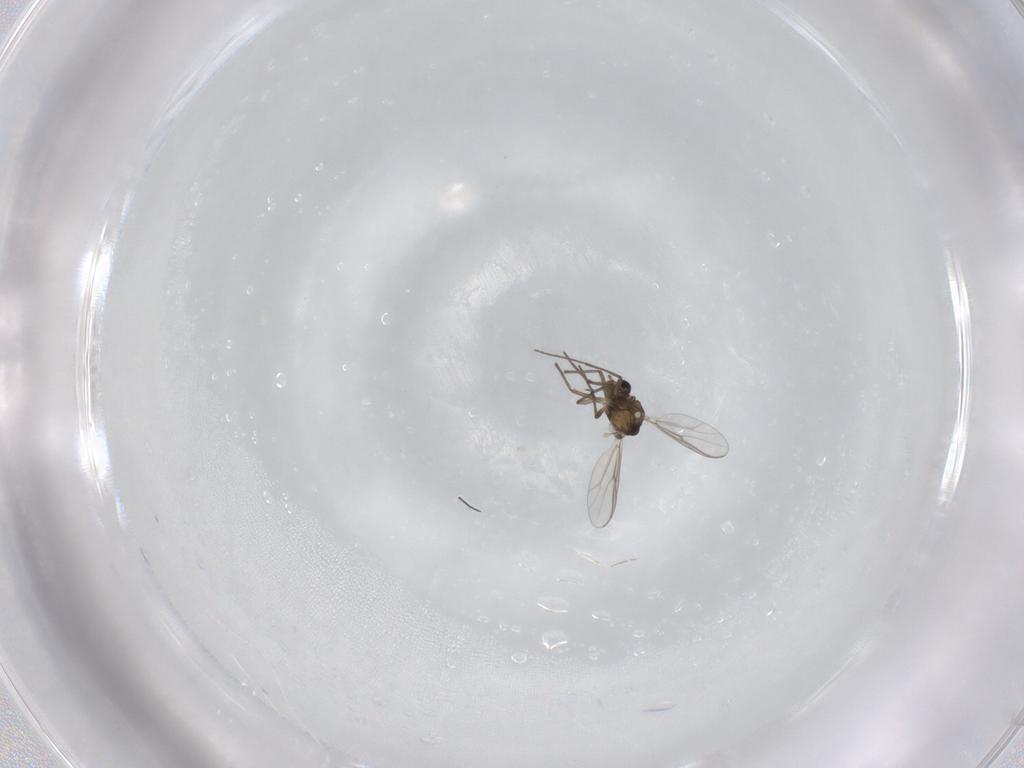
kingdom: Animalia
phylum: Arthropoda
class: Insecta
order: Diptera
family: Chironomidae
